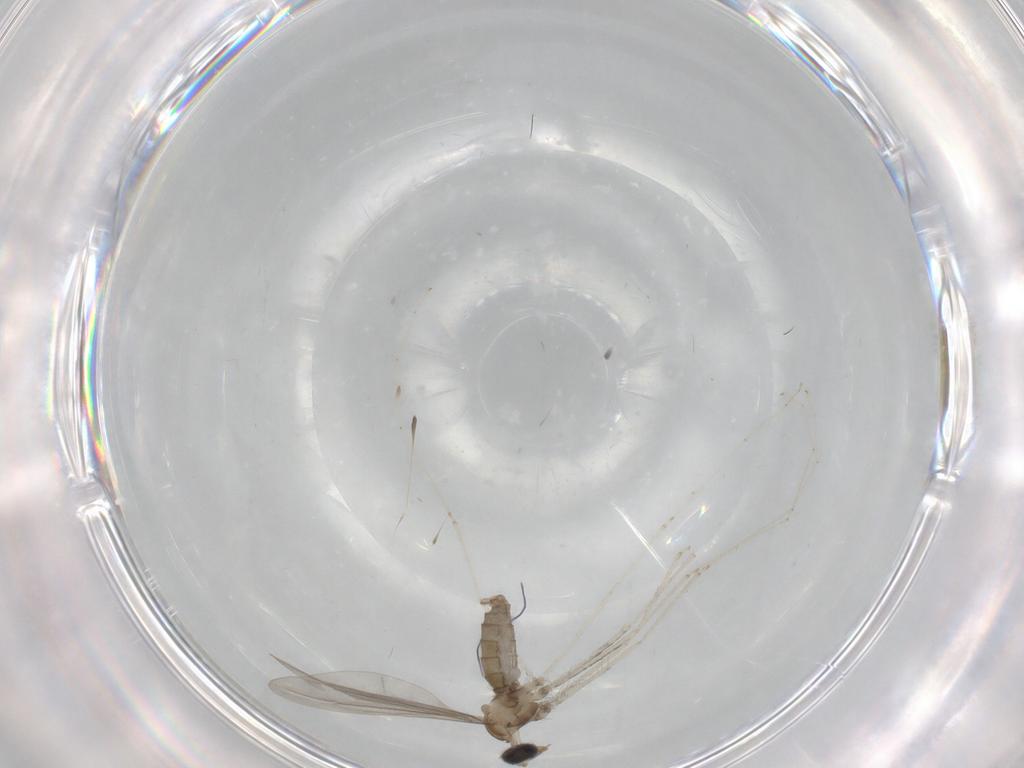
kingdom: Animalia
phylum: Arthropoda
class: Insecta
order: Diptera
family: Cecidomyiidae
